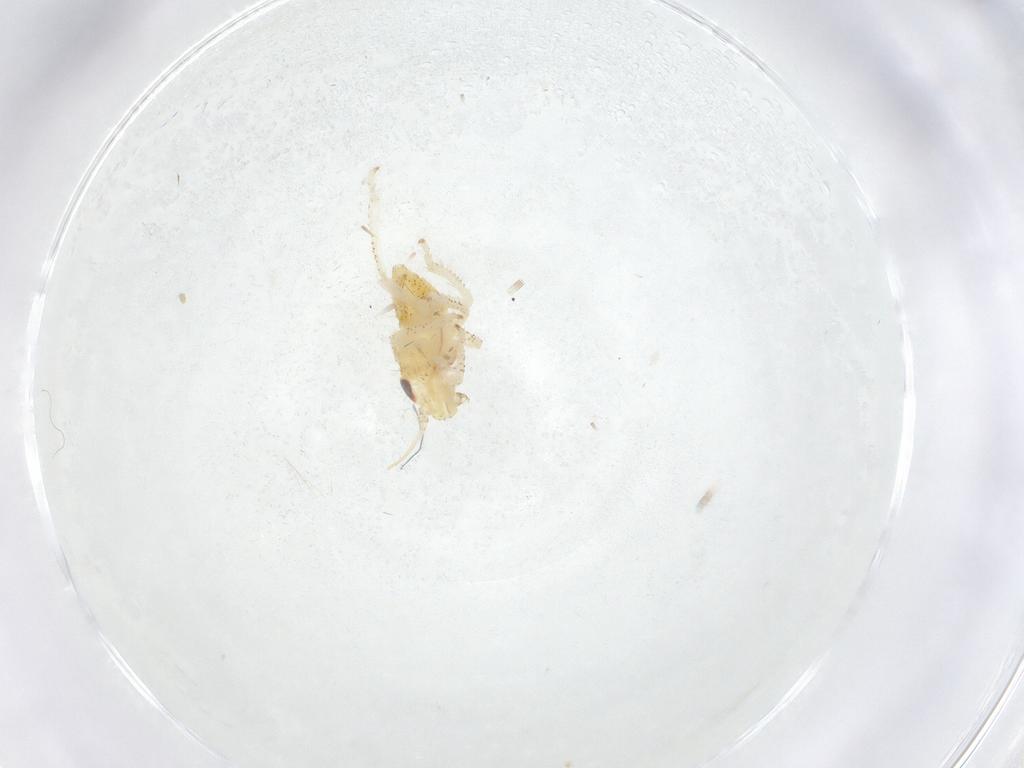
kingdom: Animalia
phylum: Arthropoda
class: Insecta
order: Hemiptera
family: Cicadellidae
